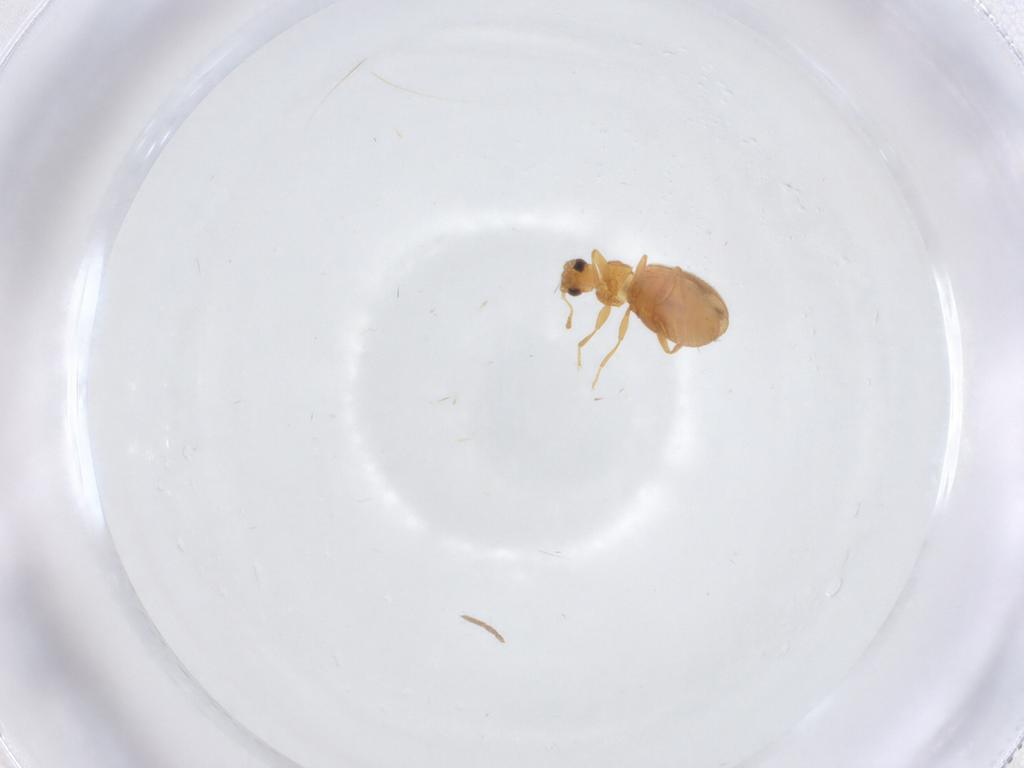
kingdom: Animalia
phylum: Arthropoda
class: Insecta
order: Coleoptera
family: Latridiidae
